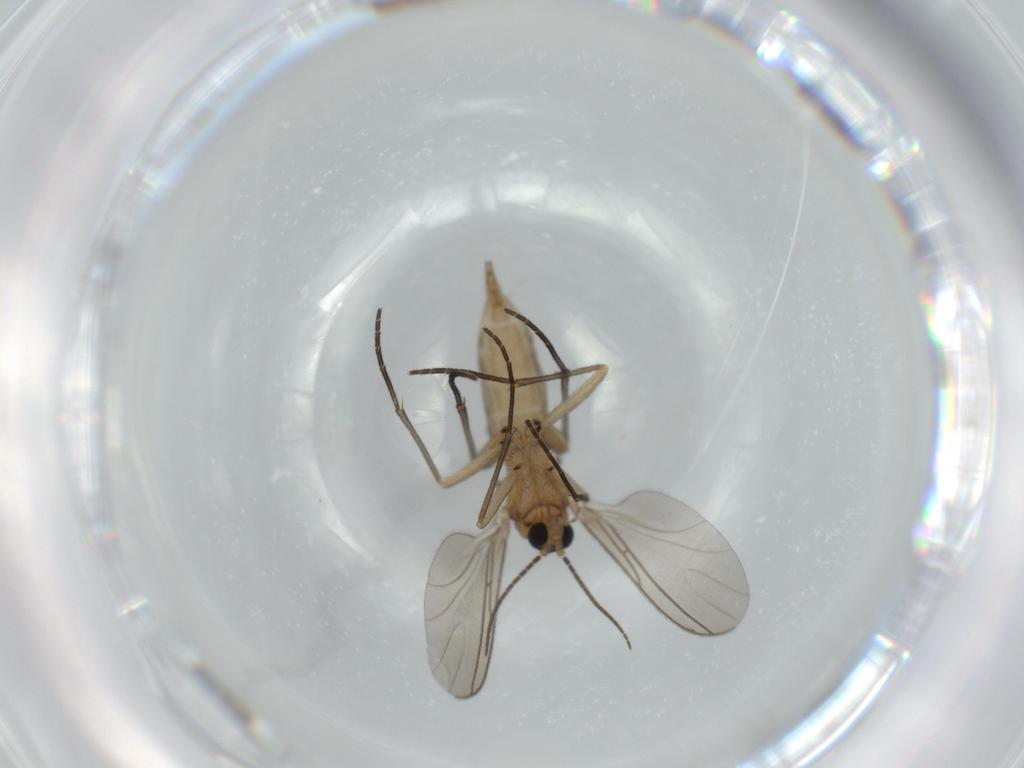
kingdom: Animalia
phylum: Arthropoda
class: Insecta
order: Diptera
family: Sciaridae
